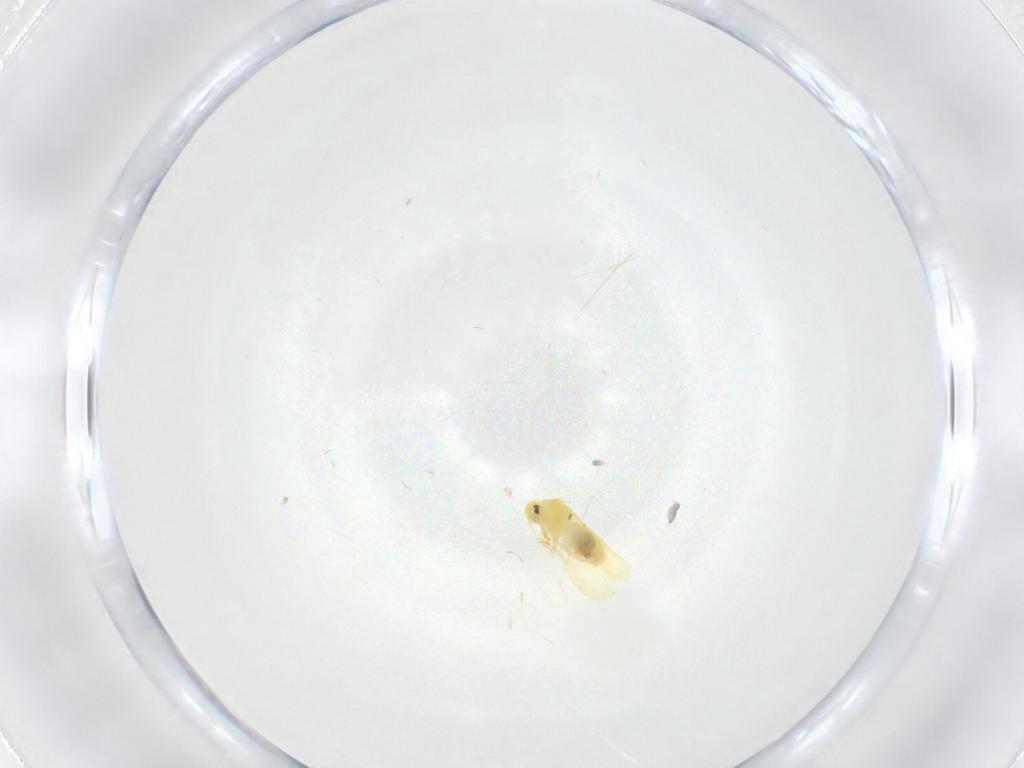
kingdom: Animalia
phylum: Arthropoda
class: Insecta
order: Hemiptera
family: Aleyrodidae
